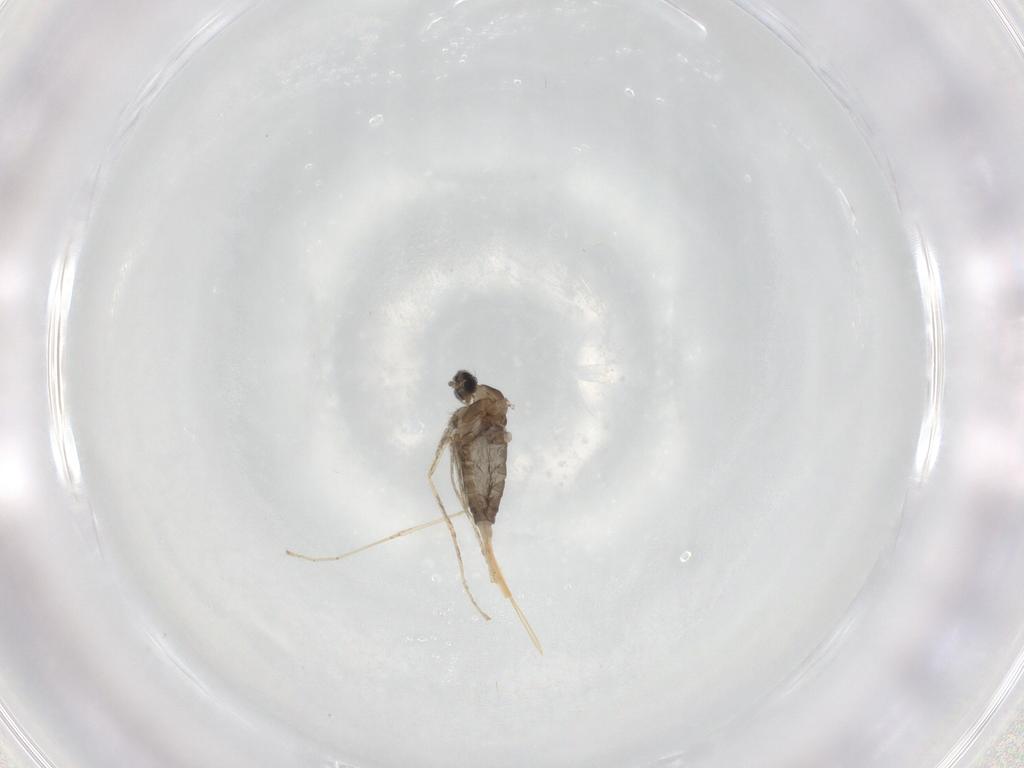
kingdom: Animalia
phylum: Arthropoda
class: Insecta
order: Diptera
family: Cecidomyiidae
